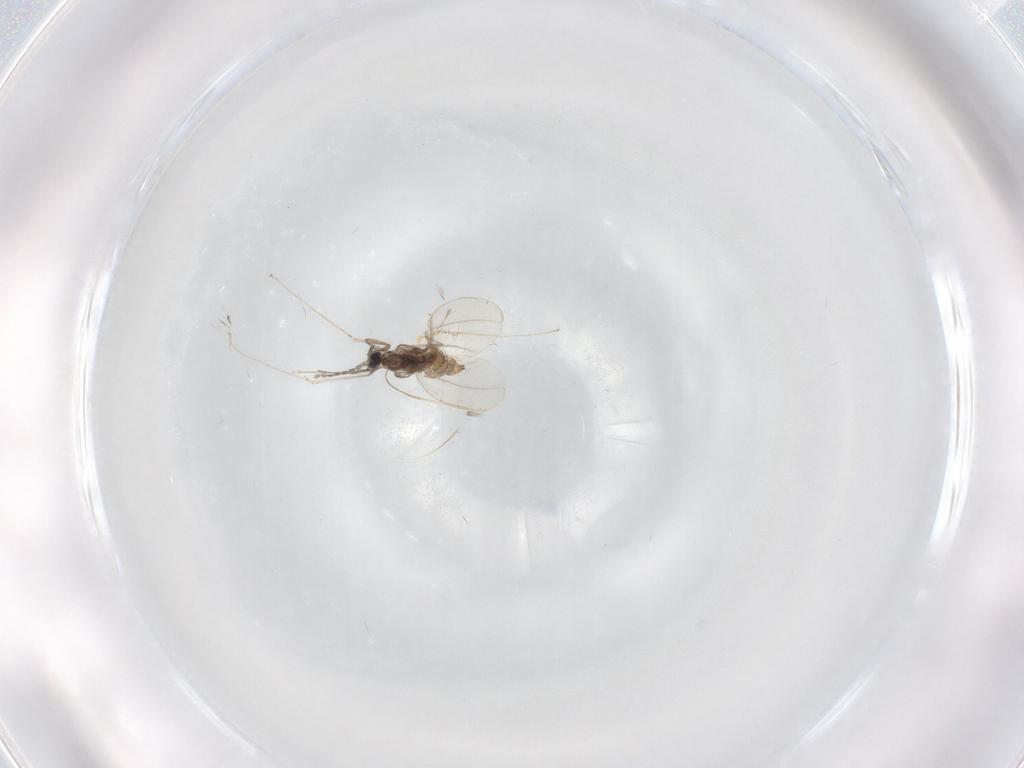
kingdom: Animalia
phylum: Arthropoda
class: Insecta
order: Diptera
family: Cecidomyiidae
